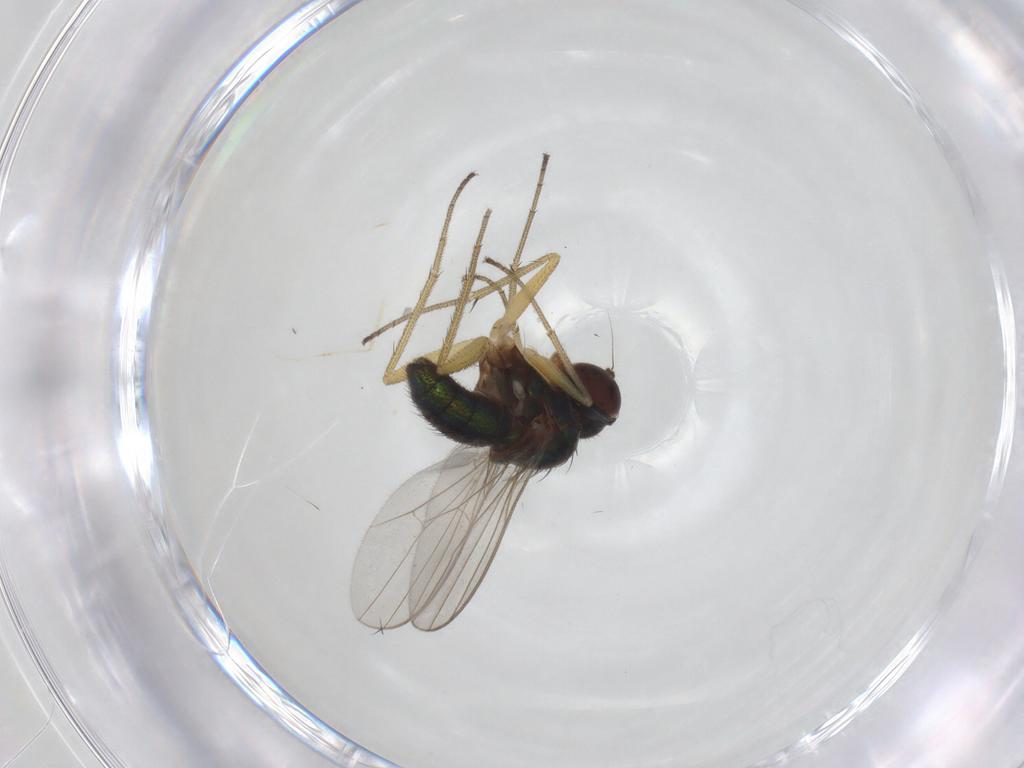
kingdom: Animalia
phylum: Arthropoda
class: Insecta
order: Diptera
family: Dolichopodidae
